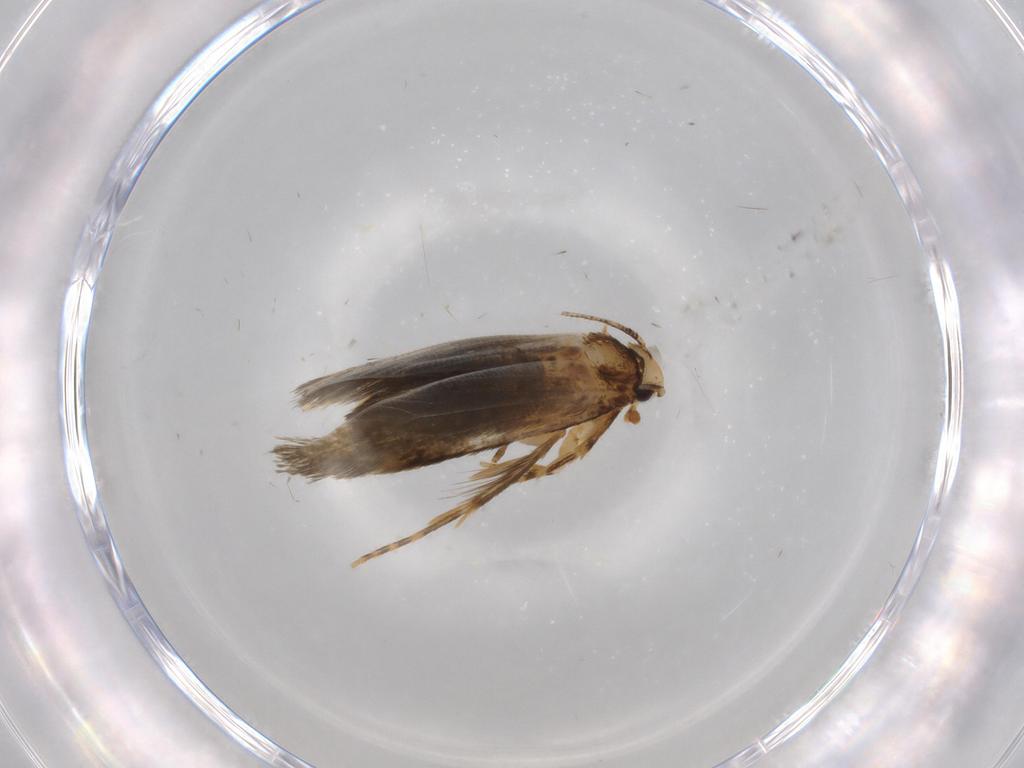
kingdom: Animalia
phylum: Arthropoda
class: Insecta
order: Lepidoptera
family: Tineidae
